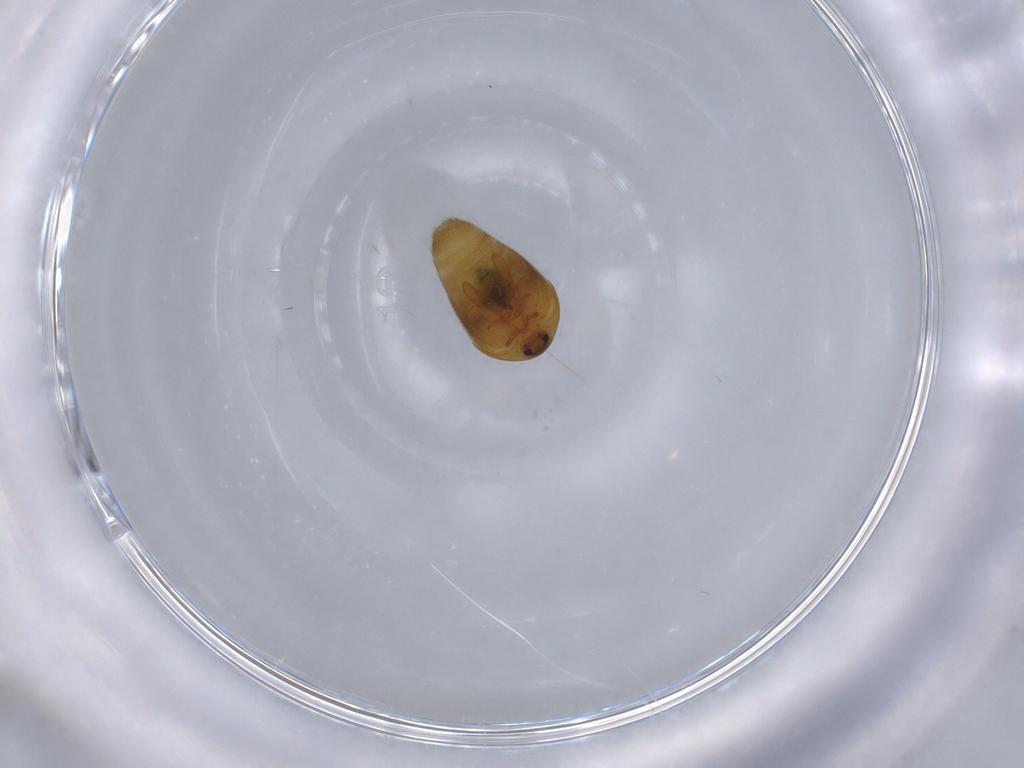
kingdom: Animalia
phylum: Arthropoda
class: Insecta
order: Coleoptera
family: Corylophidae
